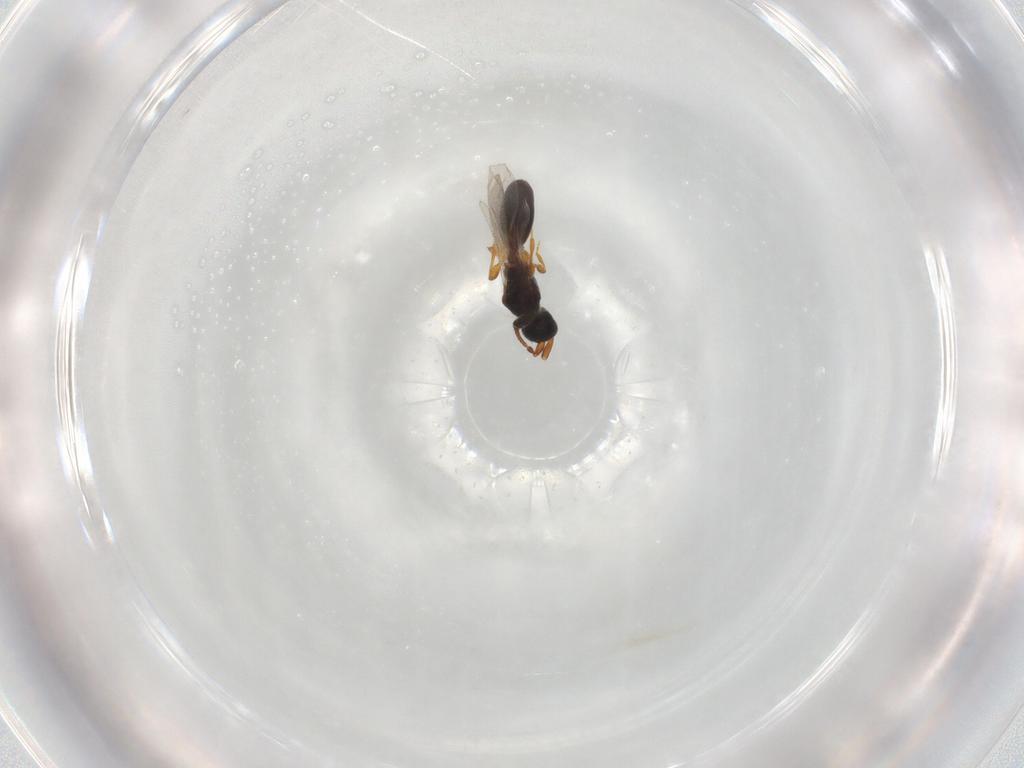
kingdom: Animalia
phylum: Arthropoda
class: Insecta
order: Hymenoptera
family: Diapriidae
